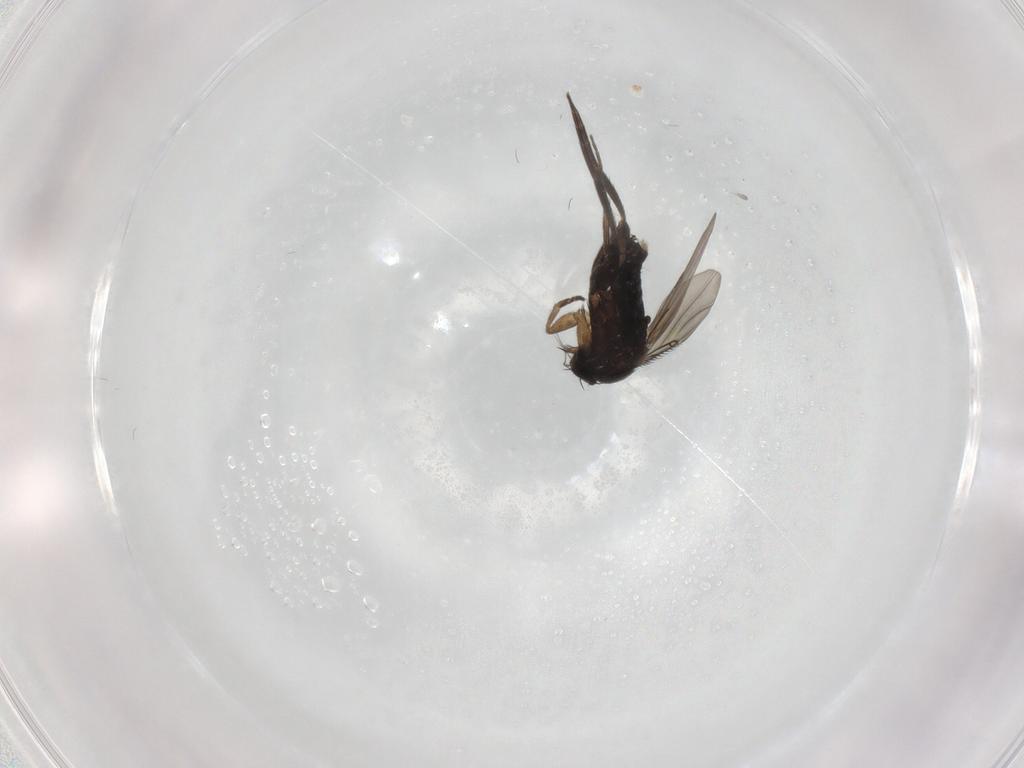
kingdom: Animalia
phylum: Arthropoda
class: Insecta
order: Diptera
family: Phoridae
